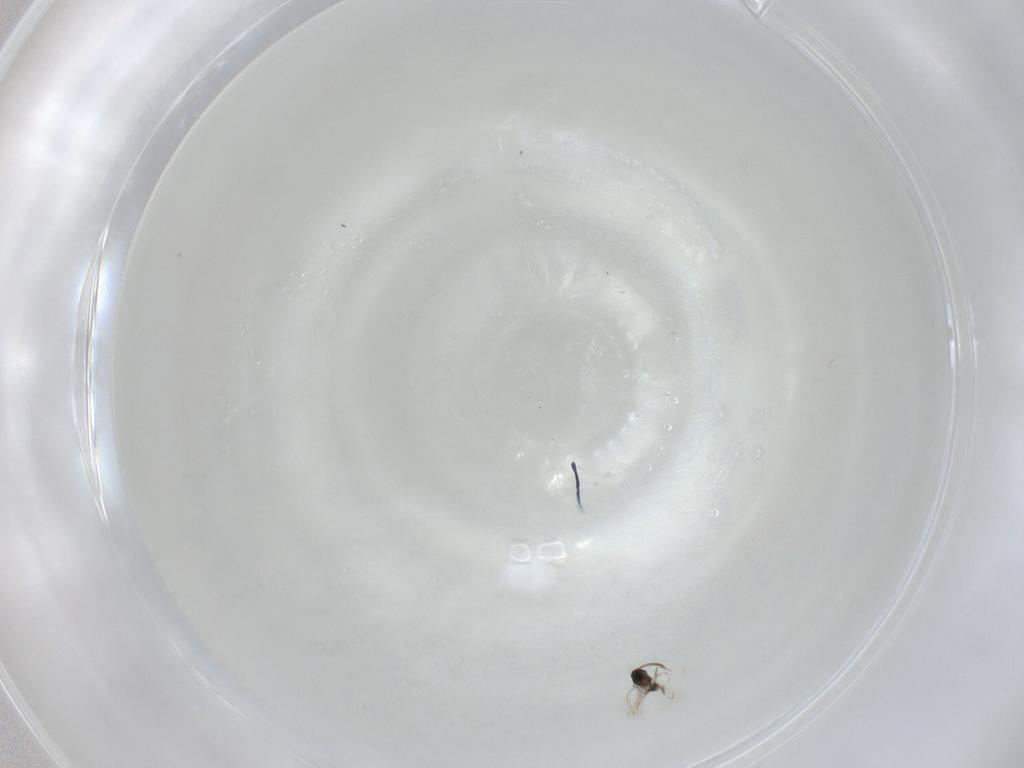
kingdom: Animalia
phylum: Arthropoda
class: Insecta
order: Hymenoptera
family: Mymaridae
